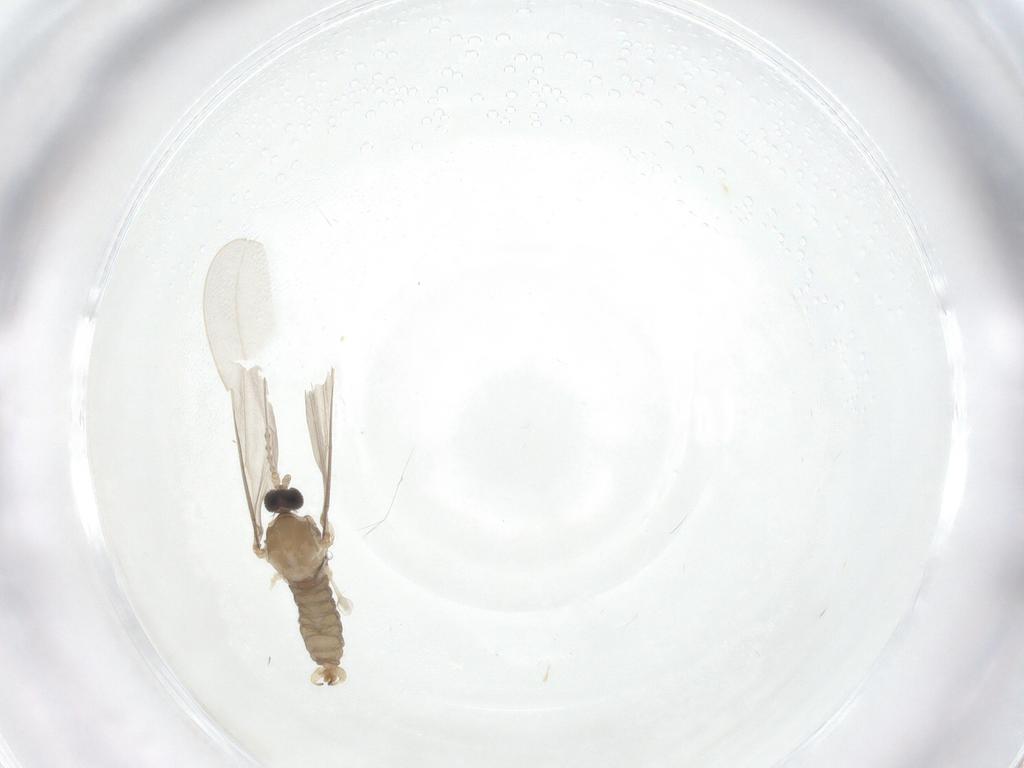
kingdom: Animalia
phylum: Arthropoda
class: Insecta
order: Diptera
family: Cecidomyiidae
